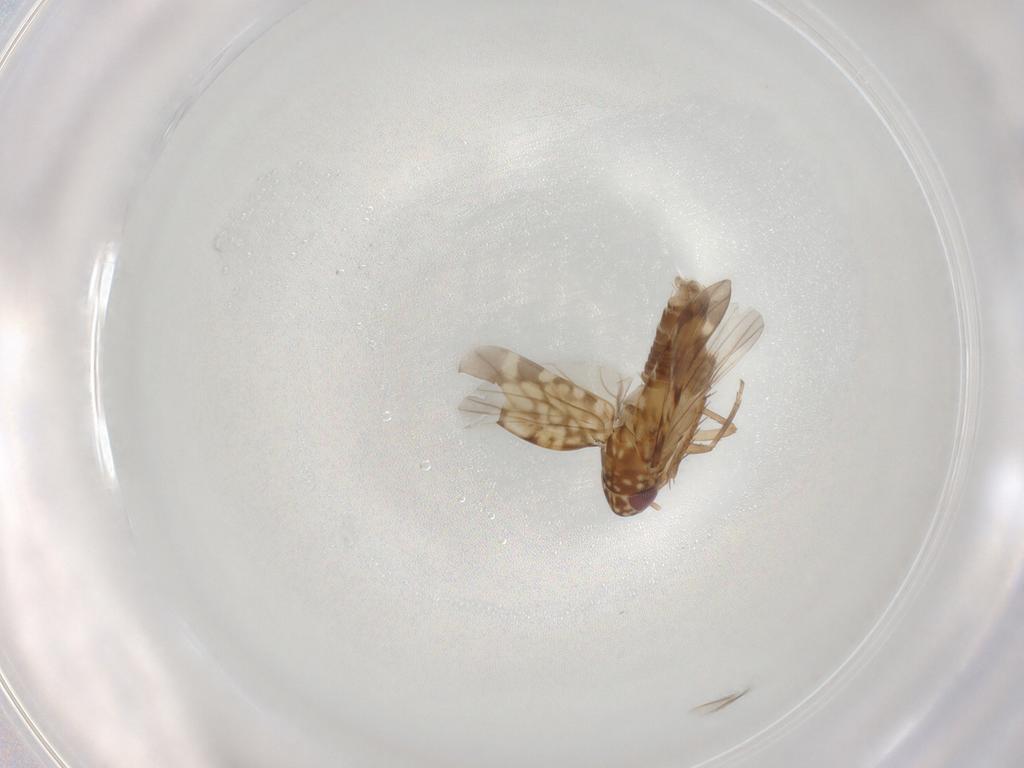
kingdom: Animalia
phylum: Arthropoda
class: Insecta
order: Hemiptera
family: Cicadellidae
